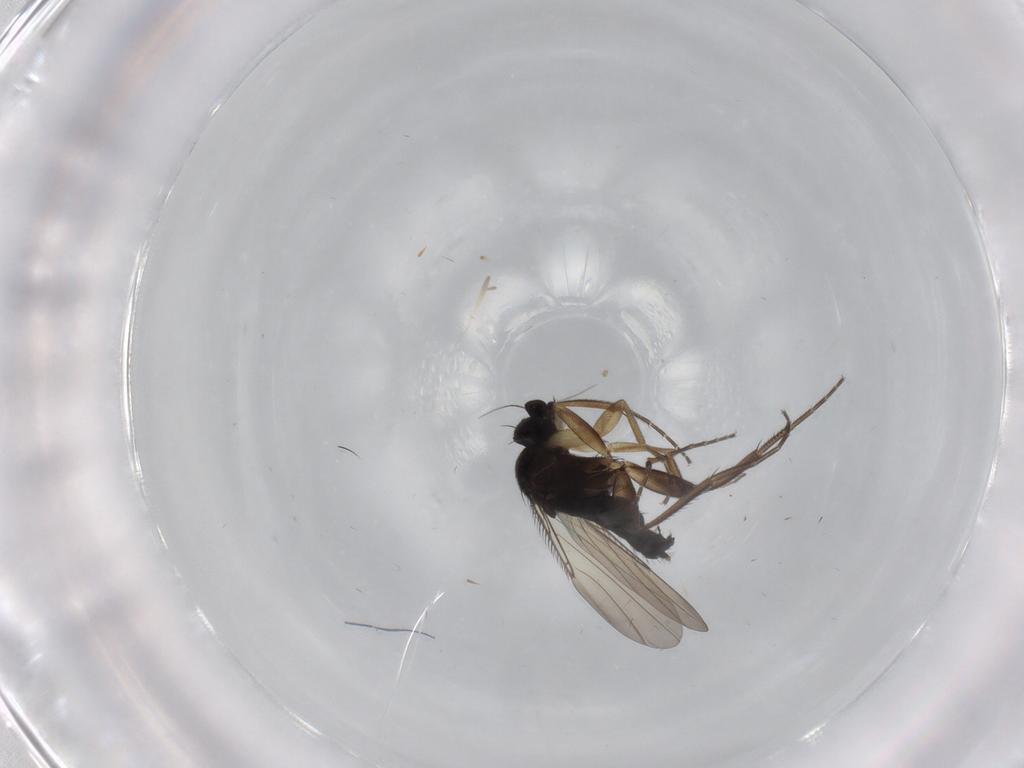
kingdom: Animalia
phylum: Arthropoda
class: Insecta
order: Diptera
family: Phoridae
